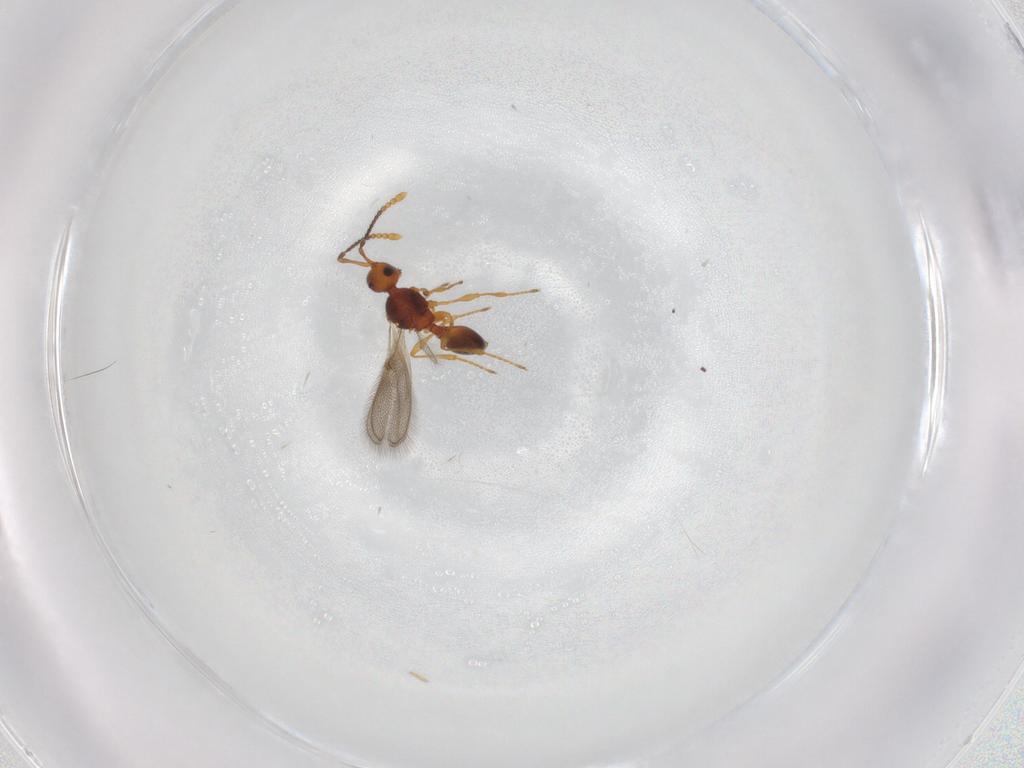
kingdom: Animalia
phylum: Arthropoda
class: Insecta
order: Hymenoptera
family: Diapriidae
